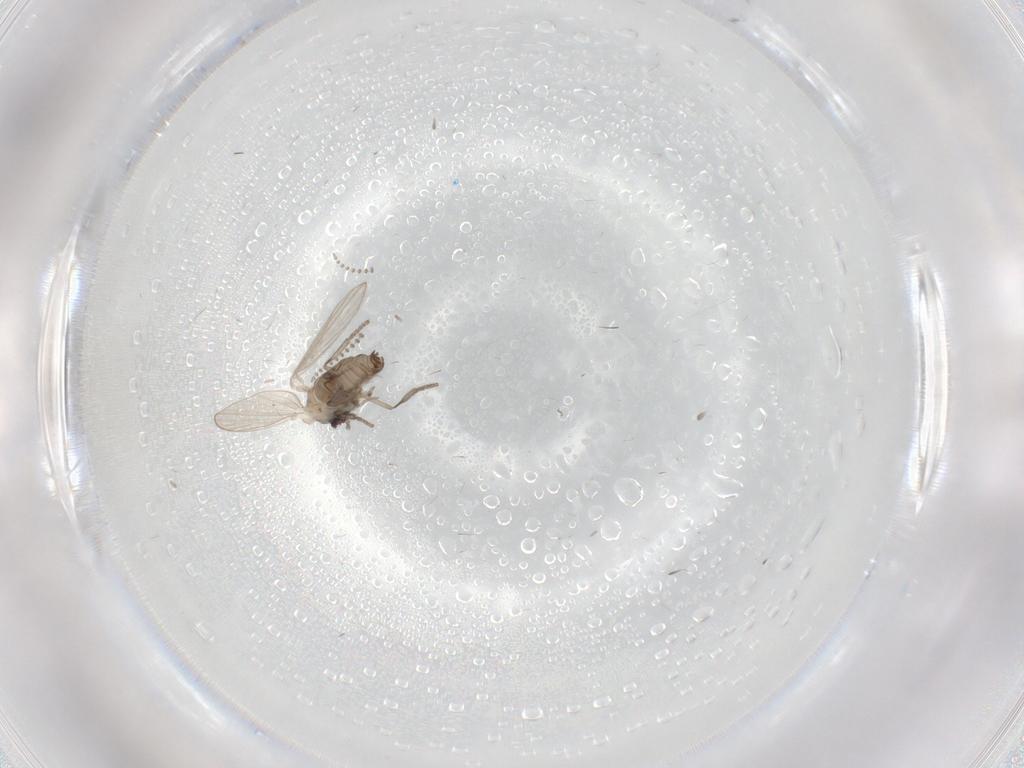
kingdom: Animalia
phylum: Arthropoda
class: Insecta
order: Diptera
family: Psychodidae
